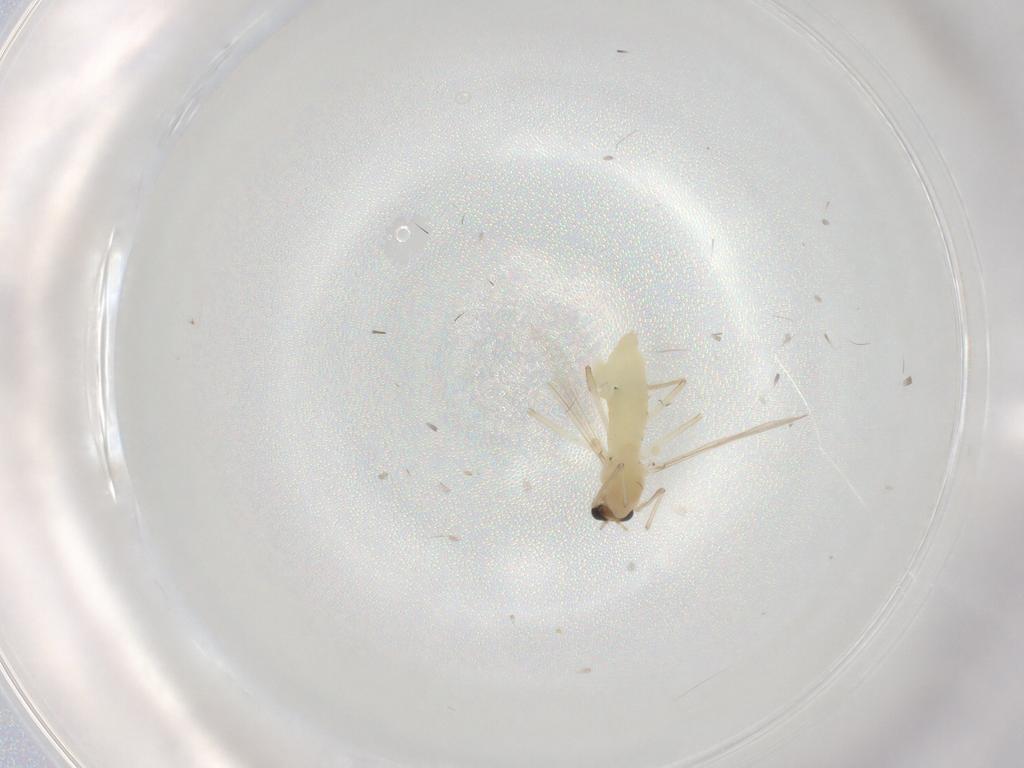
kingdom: Animalia
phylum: Arthropoda
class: Insecta
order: Diptera
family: Chironomidae
